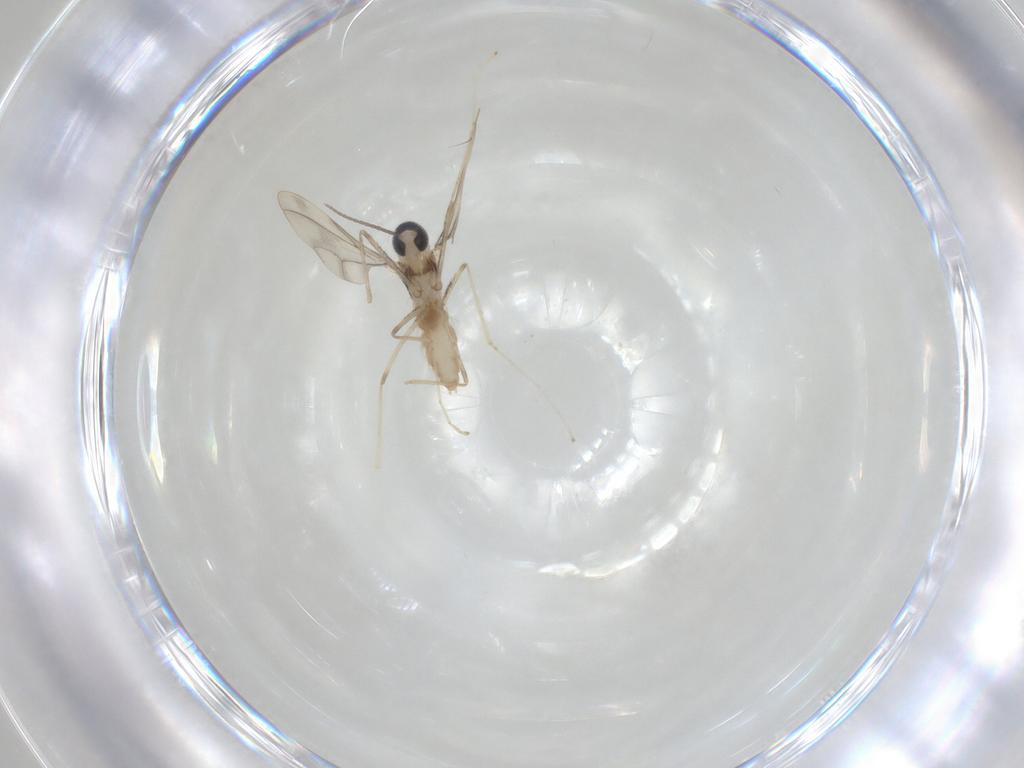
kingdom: Animalia
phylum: Arthropoda
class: Insecta
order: Diptera
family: Cecidomyiidae
